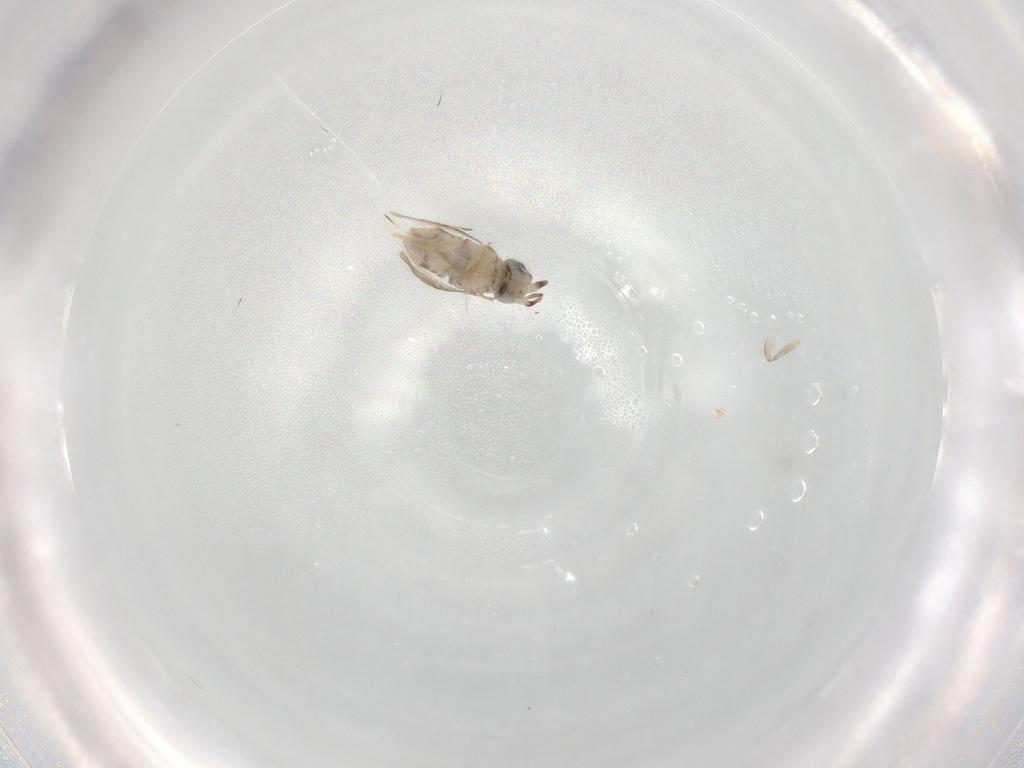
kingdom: Animalia
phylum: Arthropoda
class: Insecta
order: Hymenoptera
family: Encyrtidae
